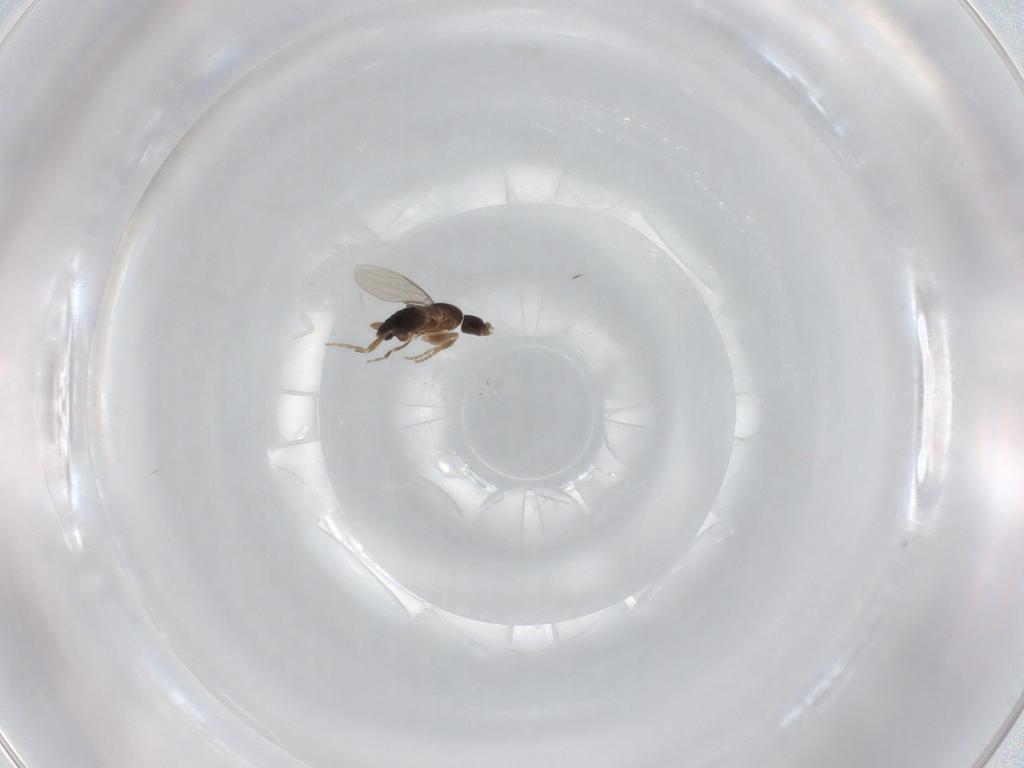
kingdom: Animalia
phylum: Arthropoda
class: Insecta
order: Diptera
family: Phoridae
